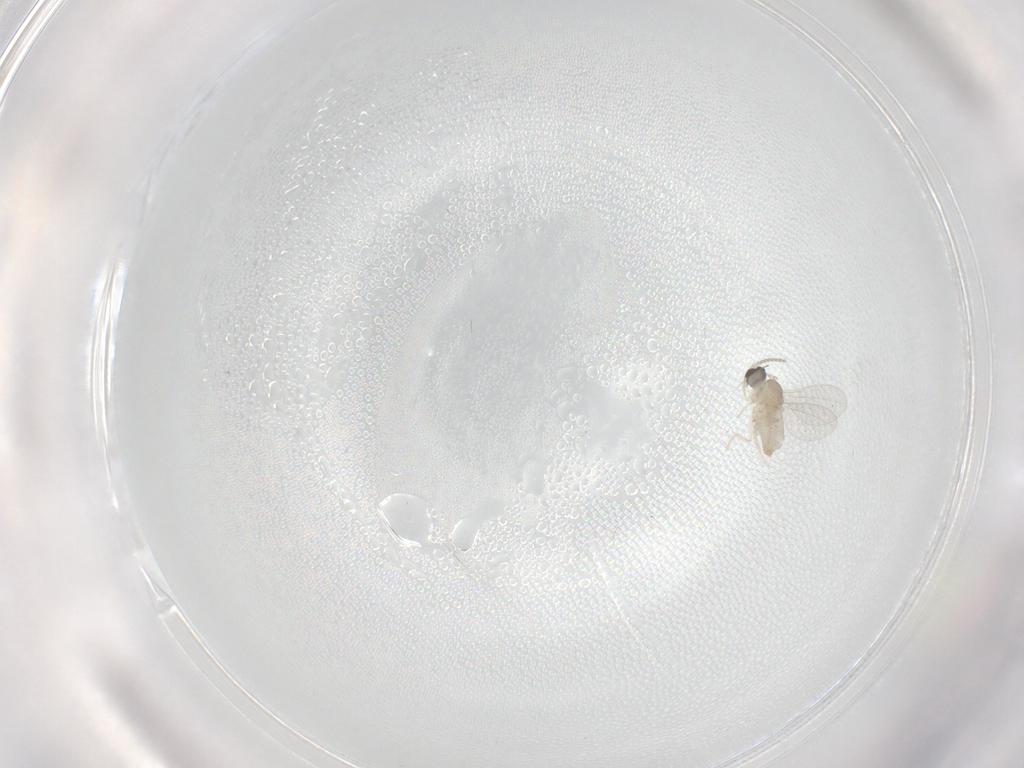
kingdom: Animalia
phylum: Arthropoda
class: Insecta
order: Diptera
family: Cecidomyiidae
